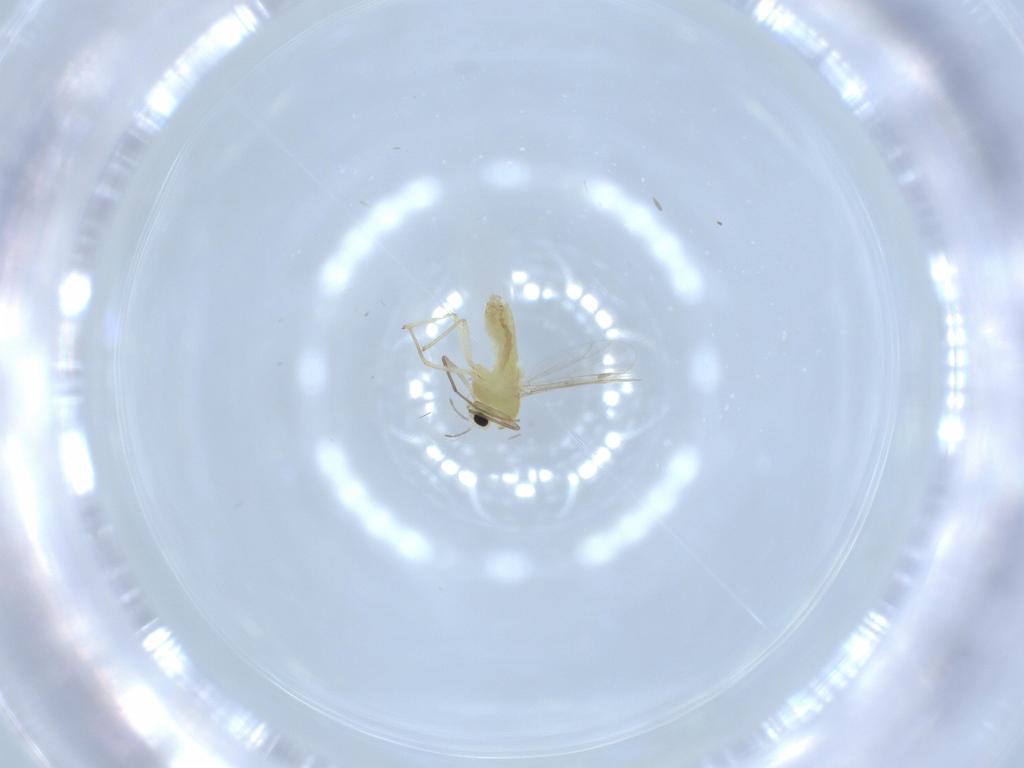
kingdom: Animalia
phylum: Arthropoda
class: Insecta
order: Diptera
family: Chironomidae
